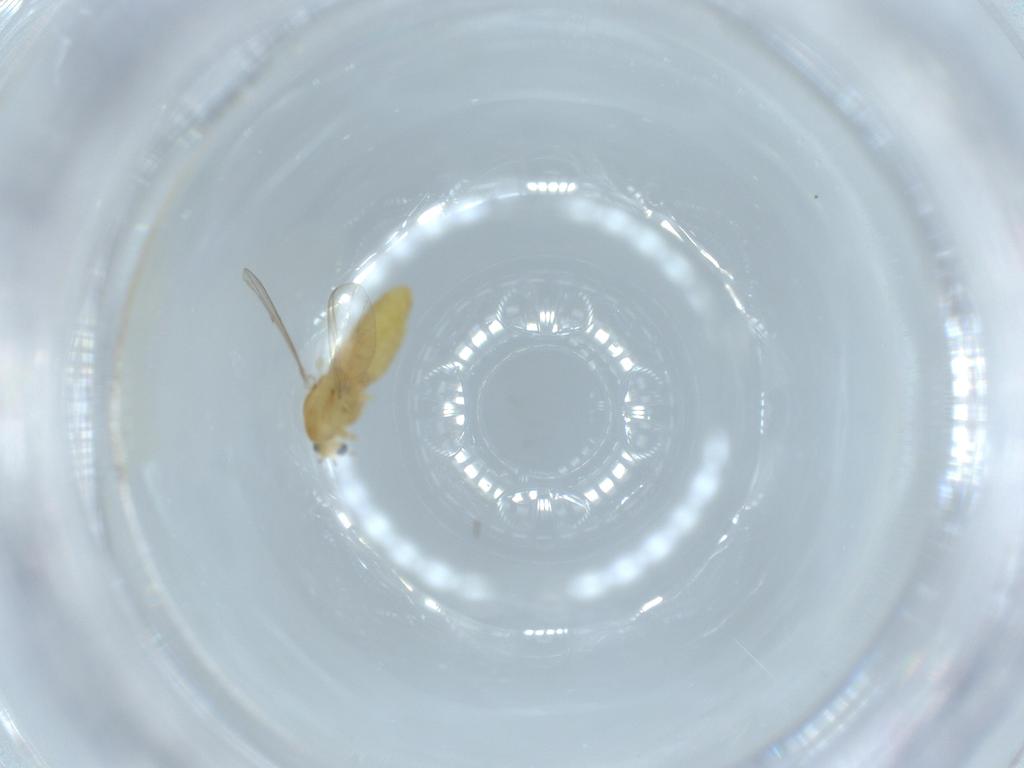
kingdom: Animalia
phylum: Arthropoda
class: Insecta
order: Diptera
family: Chironomidae
